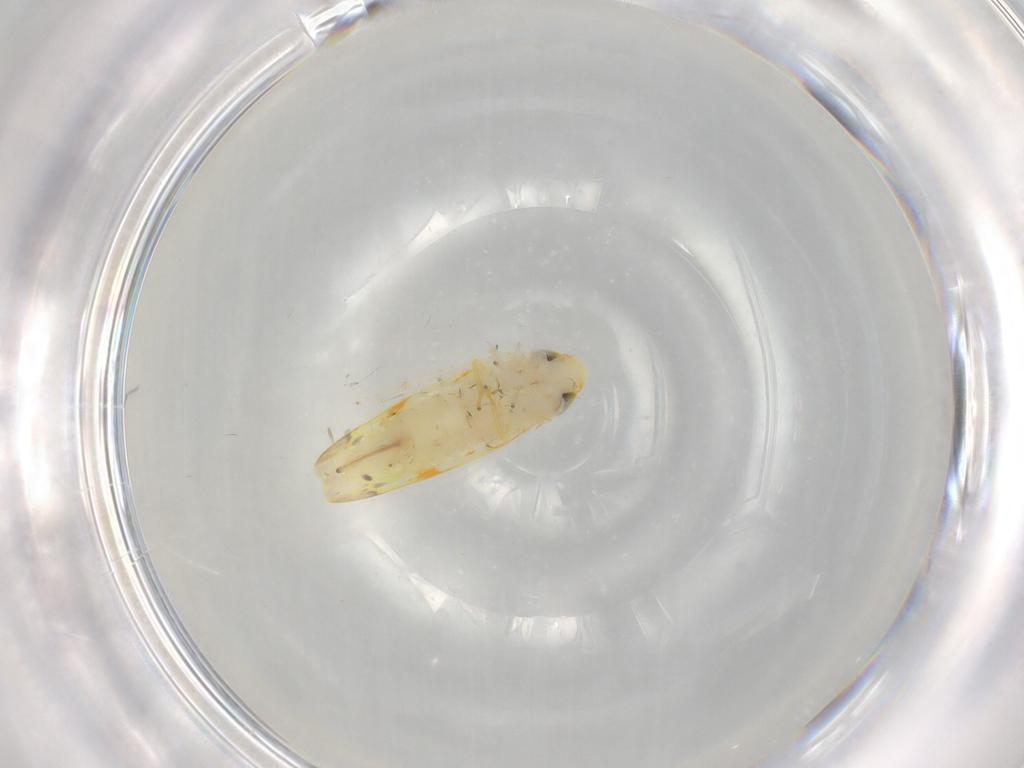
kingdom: Animalia
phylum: Arthropoda
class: Insecta
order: Hemiptera
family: Cicadellidae
